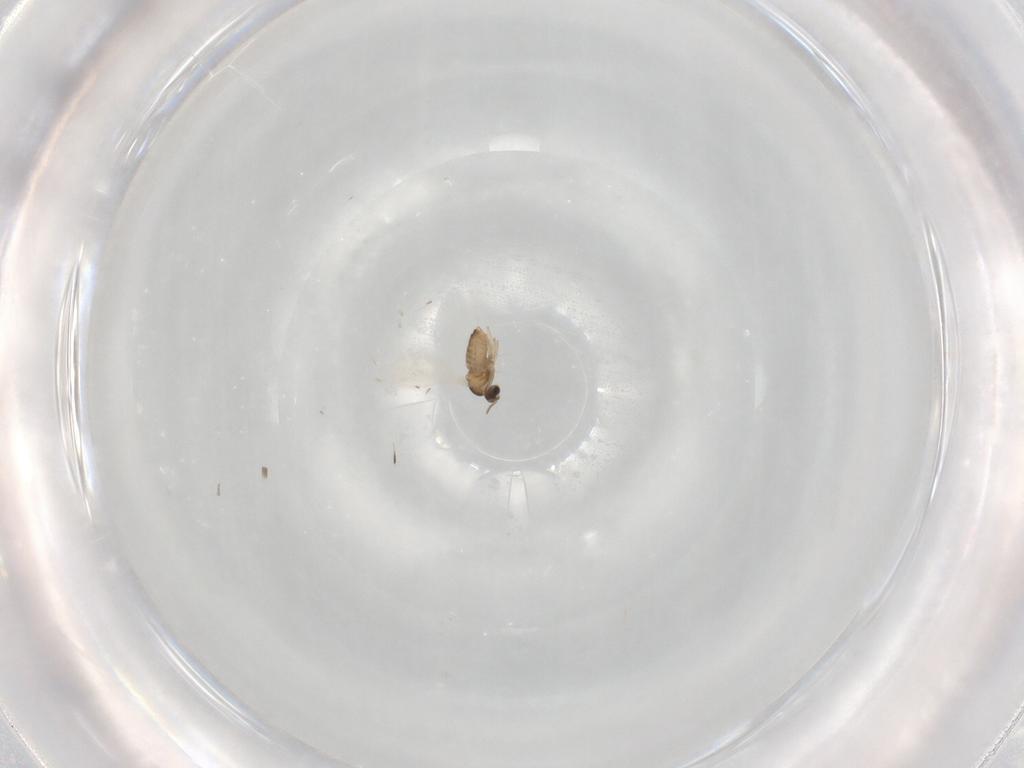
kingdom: Animalia
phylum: Arthropoda
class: Insecta
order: Diptera
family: Cecidomyiidae
